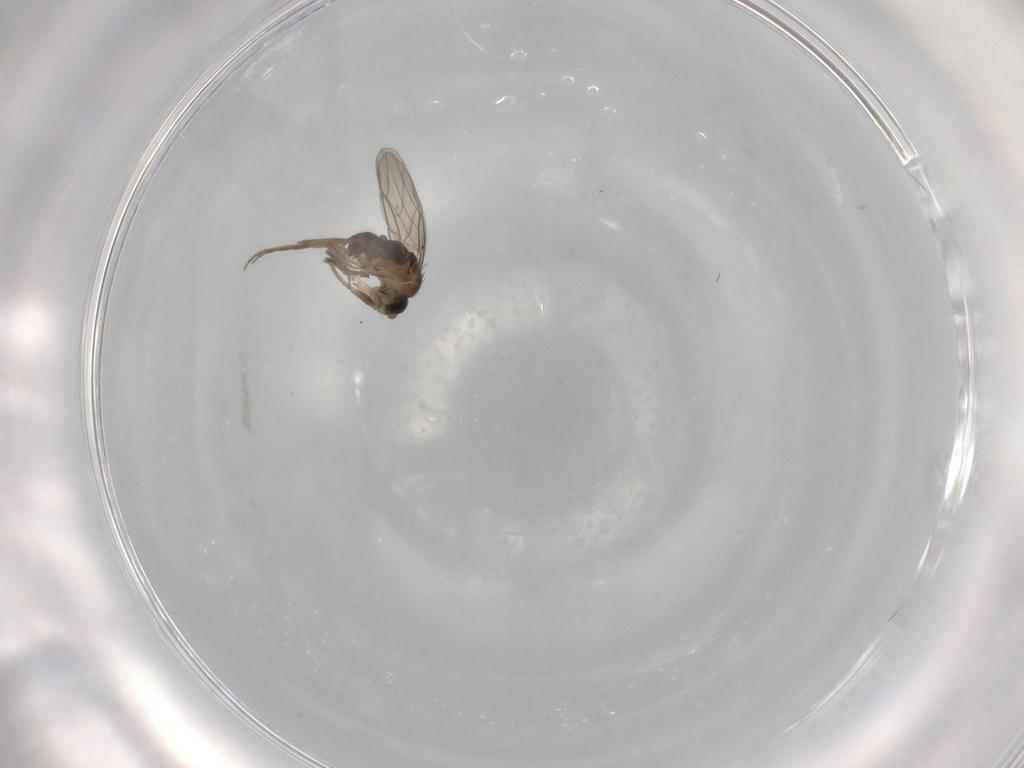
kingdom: Animalia
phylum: Arthropoda
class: Insecta
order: Diptera
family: Phoridae
